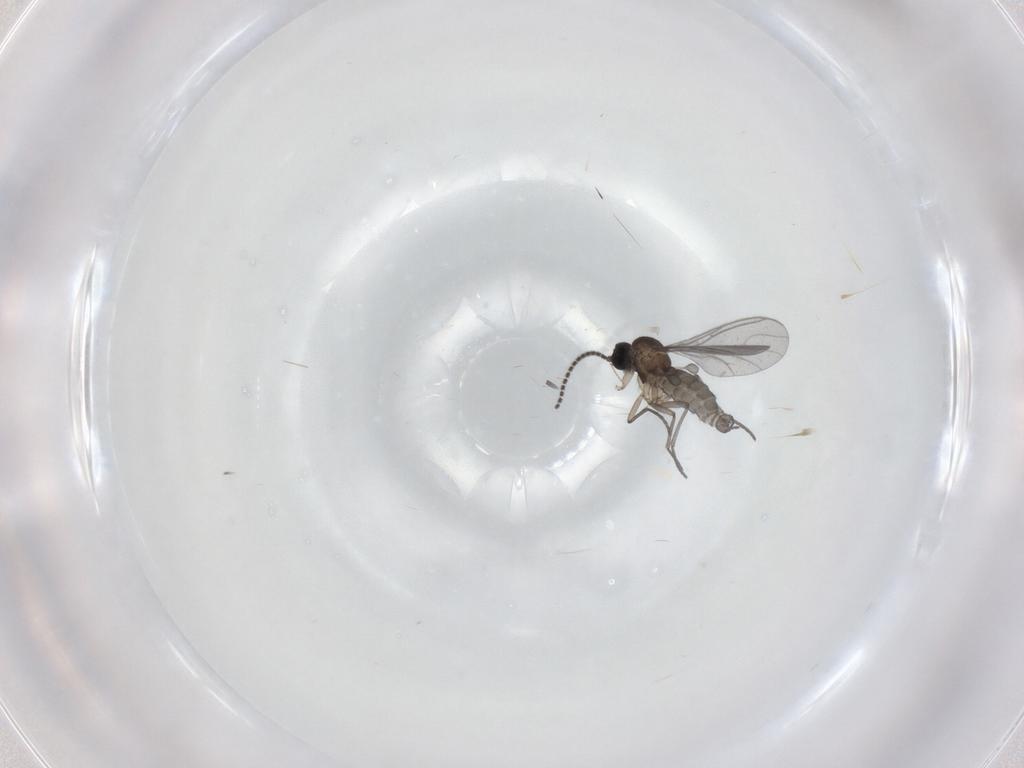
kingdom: Animalia
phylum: Arthropoda
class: Insecta
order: Diptera
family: Sciaridae
